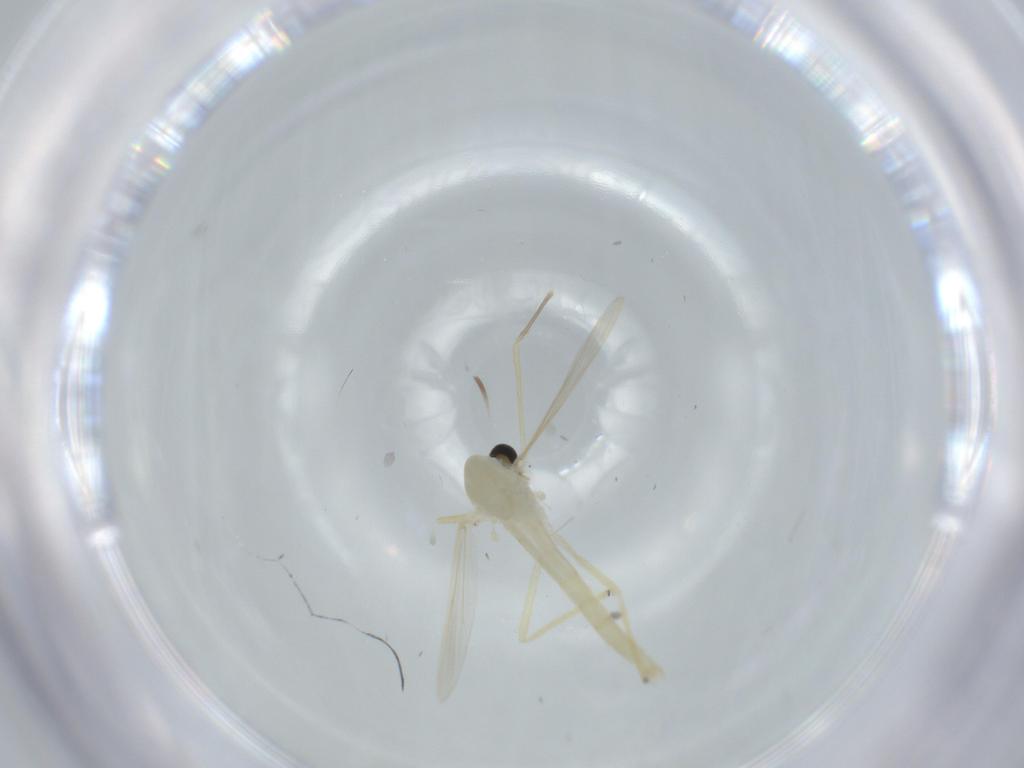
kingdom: Animalia
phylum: Arthropoda
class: Insecta
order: Diptera
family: Chironomidae
